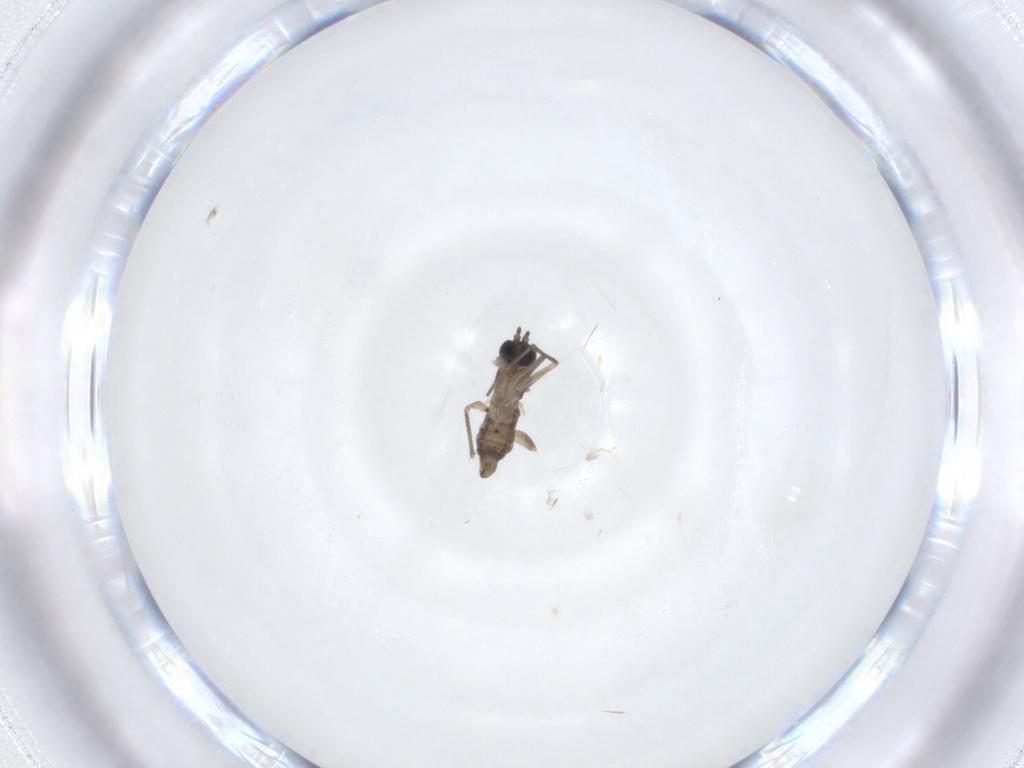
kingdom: Animalia
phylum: Arthropoda
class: Insecta
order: Diptera
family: Sciaridae
